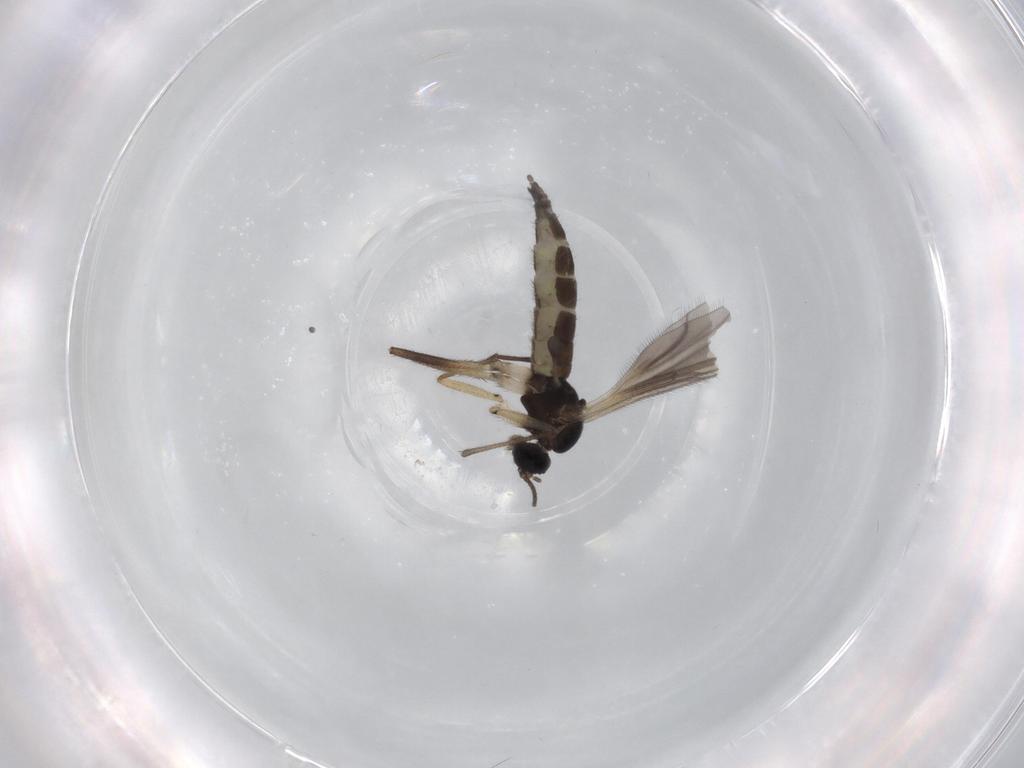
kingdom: Animalia
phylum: Arthropoda
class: Insecta
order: Diptera
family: Sciaridae
